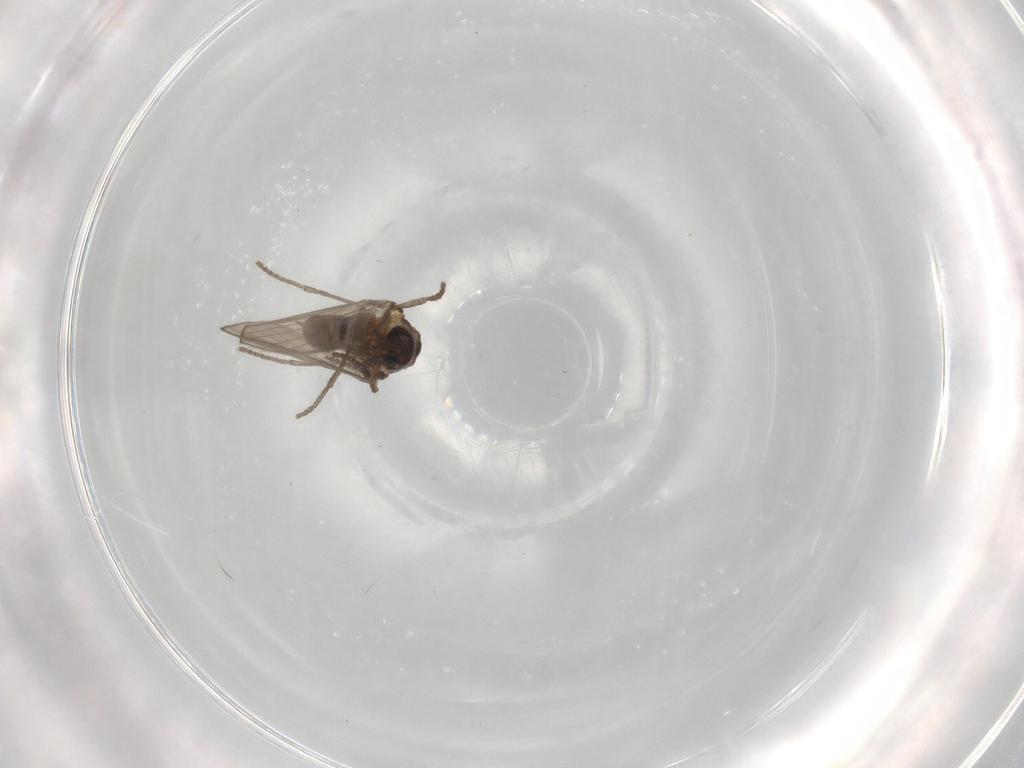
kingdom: Animalia
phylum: Arthropoda
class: Insecta
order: Diptera
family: Psychodidae
